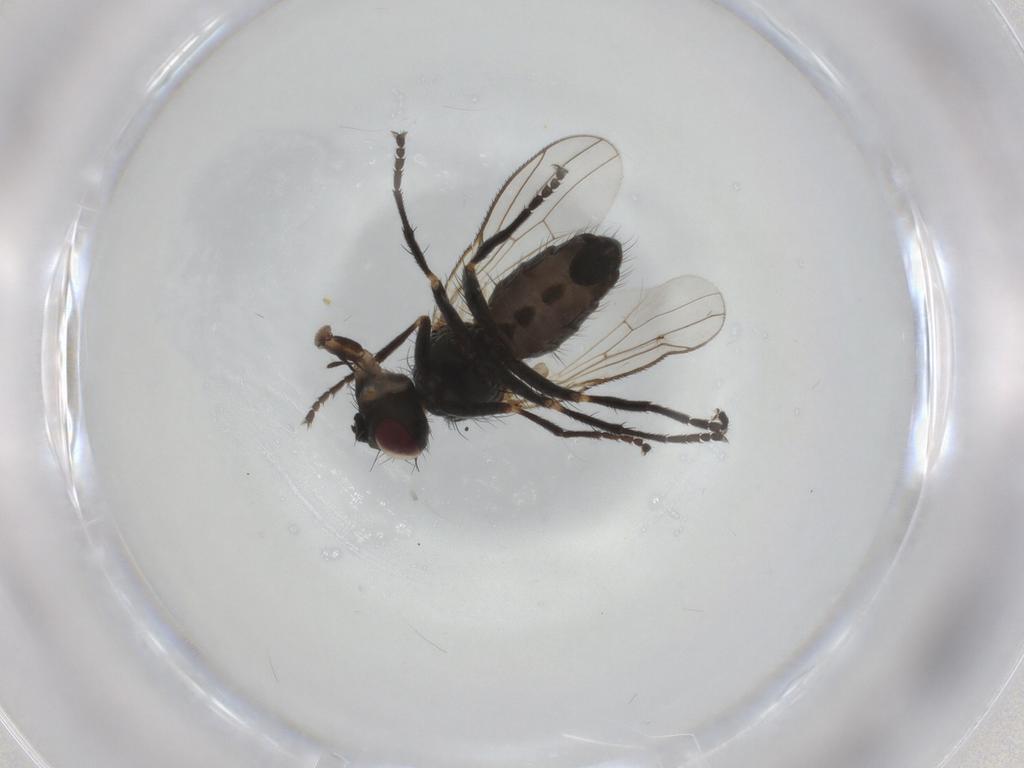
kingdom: Animalia
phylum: Arthropoda
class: Insecta
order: Diptera
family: Muscidae
